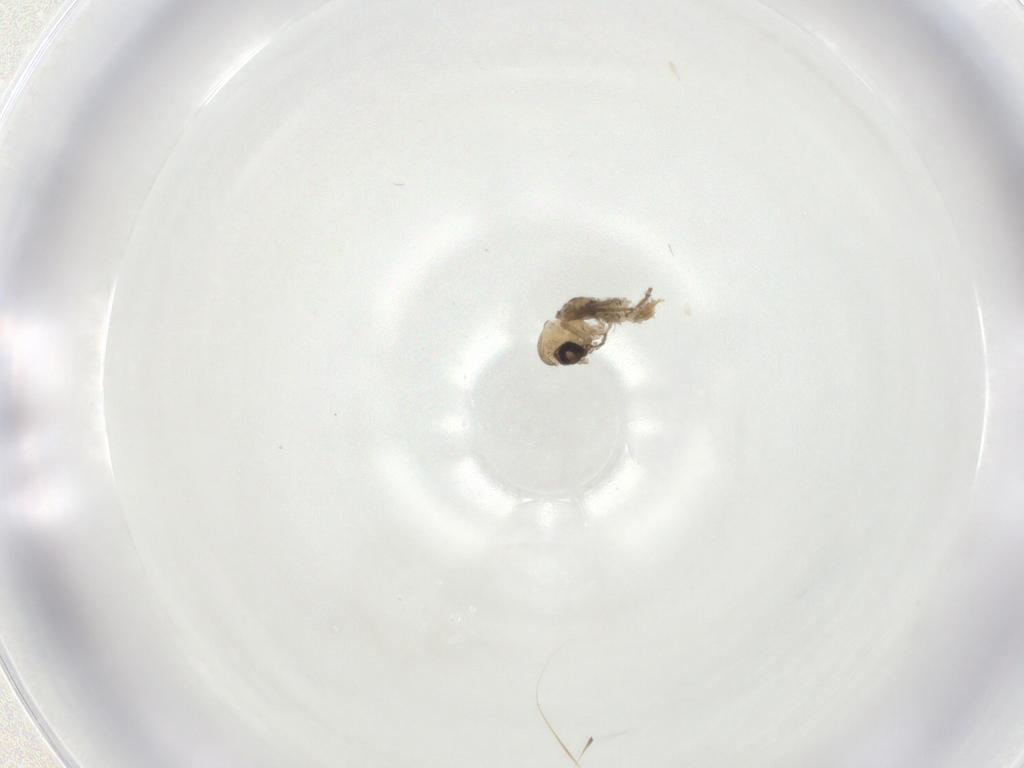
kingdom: Animalia
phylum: Arthropoda
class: Insecta
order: Diptera
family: Psychodidae
